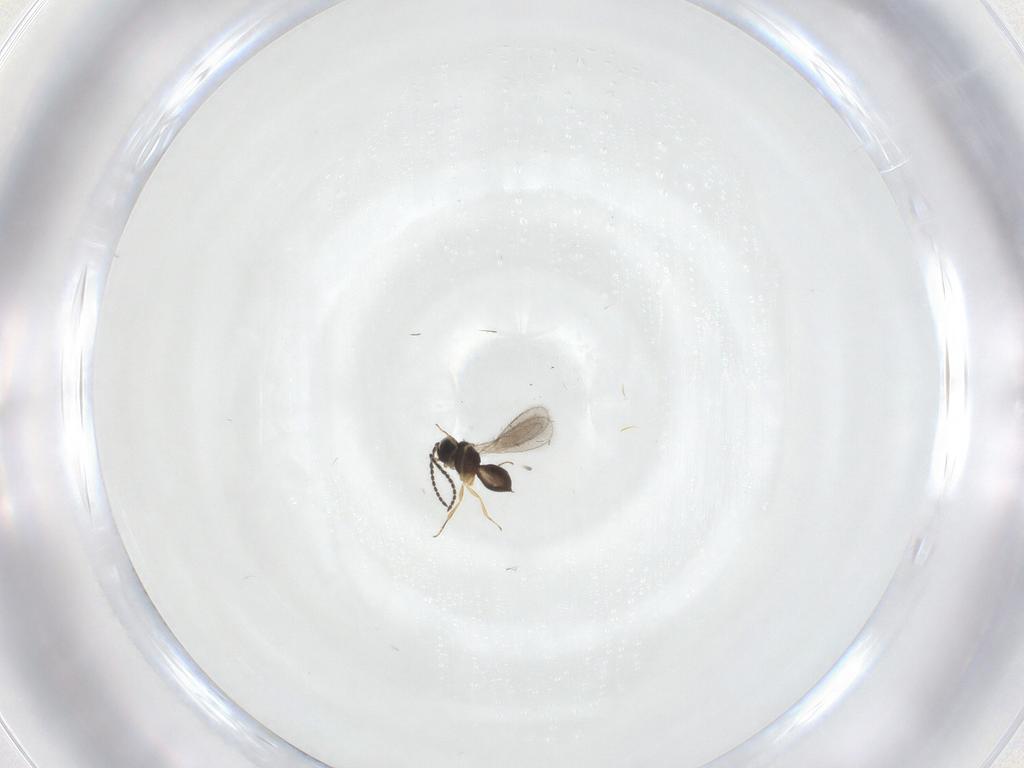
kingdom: Animalia
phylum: Arthropoda
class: Insecta
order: Hymenoptera
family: Scelionidae
